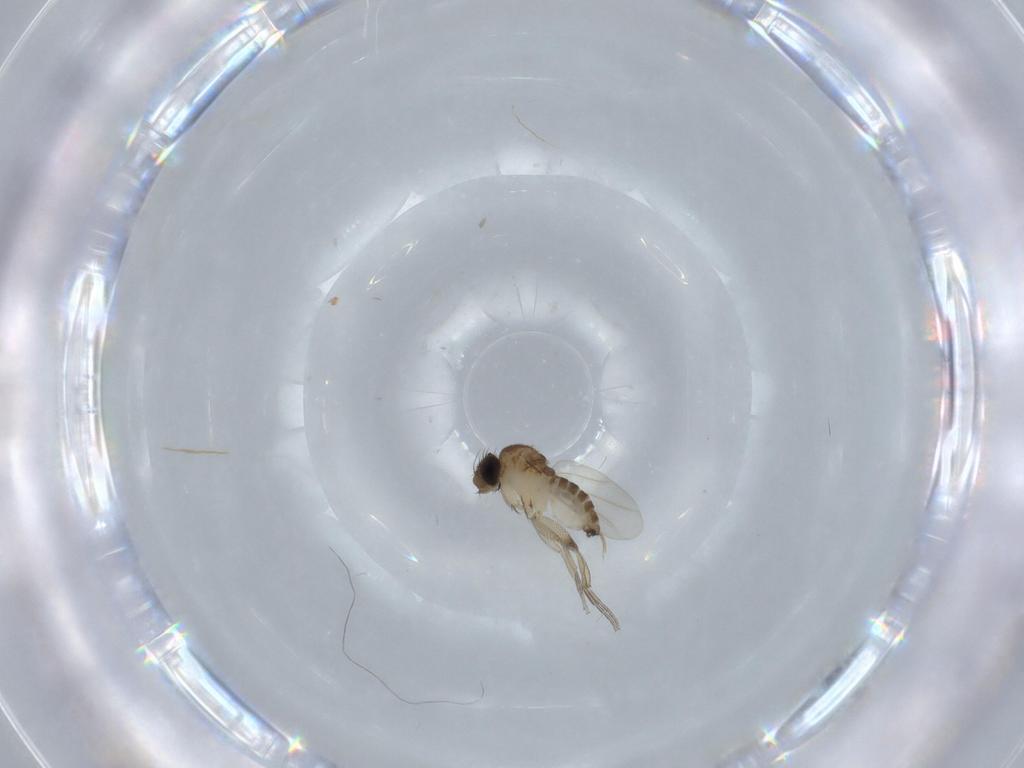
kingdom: Animalia
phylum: Arthropoda
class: Insecta
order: Diptera
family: Phoridae
